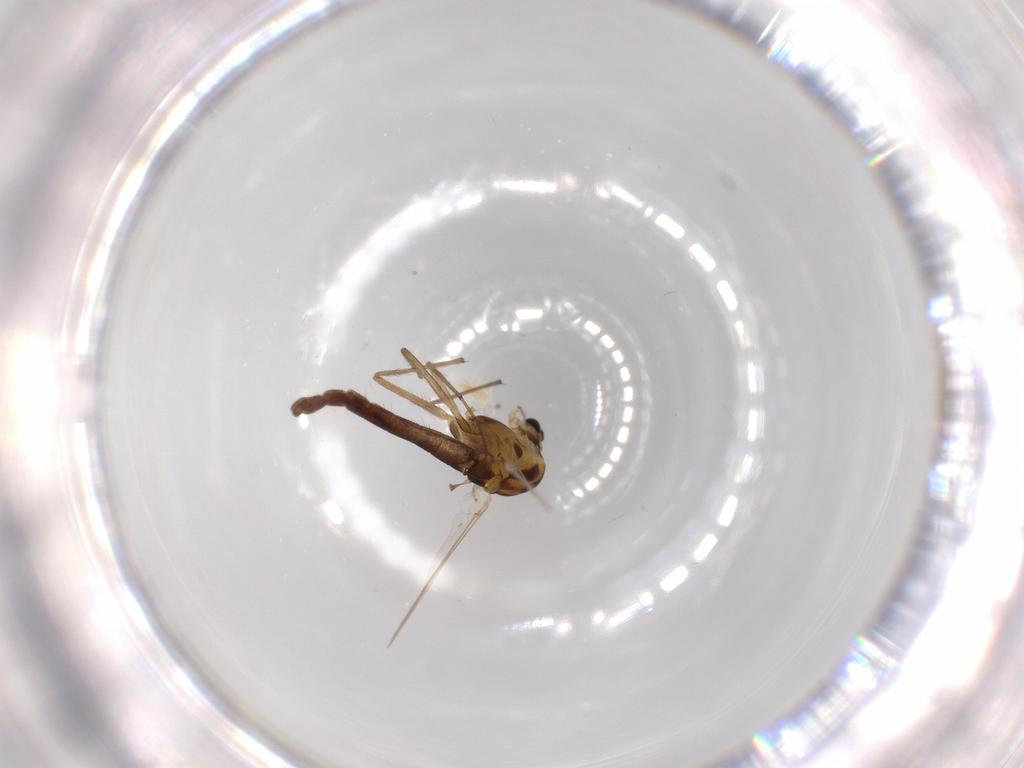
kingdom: Animalia
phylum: Arthropoda
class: Insecta
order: Diptera
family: Chironomidae
